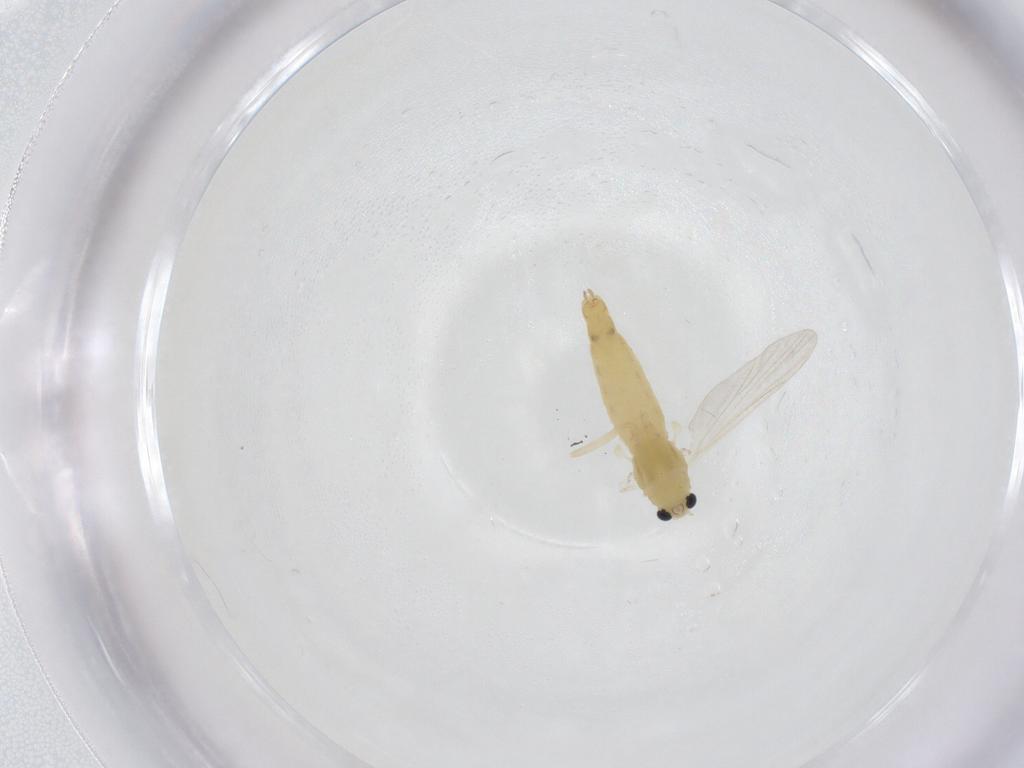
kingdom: Animalia
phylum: Arthropoda
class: Insecta
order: Diptera
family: Chironomidae
